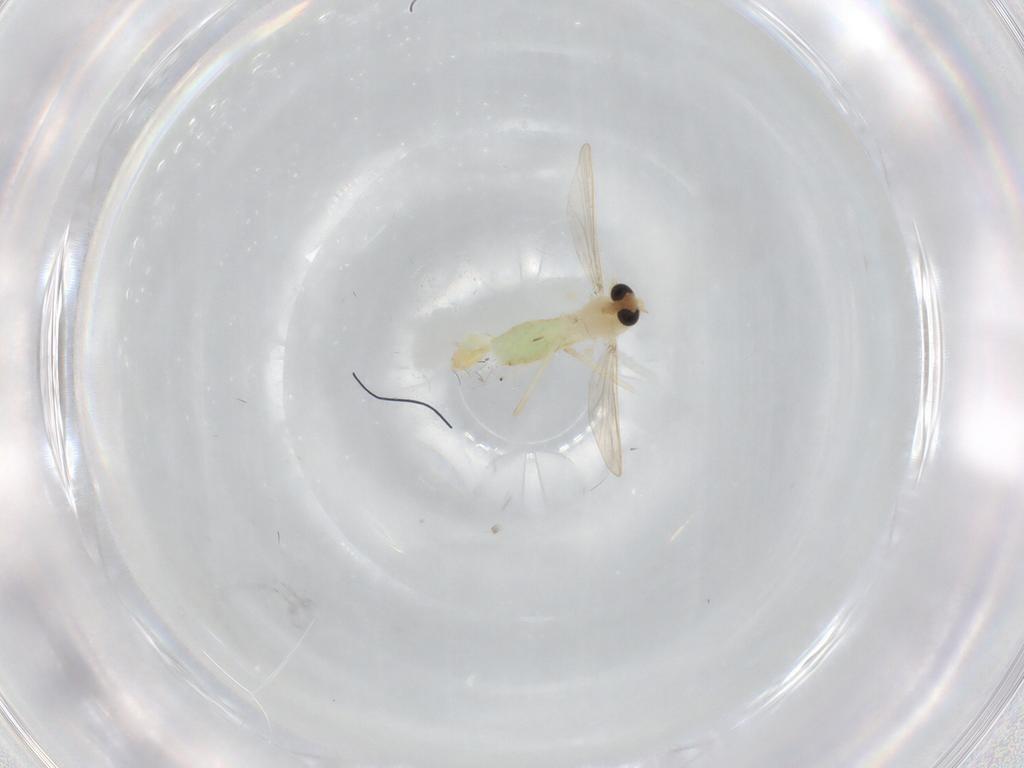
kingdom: Animalia
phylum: Arthropoda
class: Insecta
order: Diptera
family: Chironomidae
